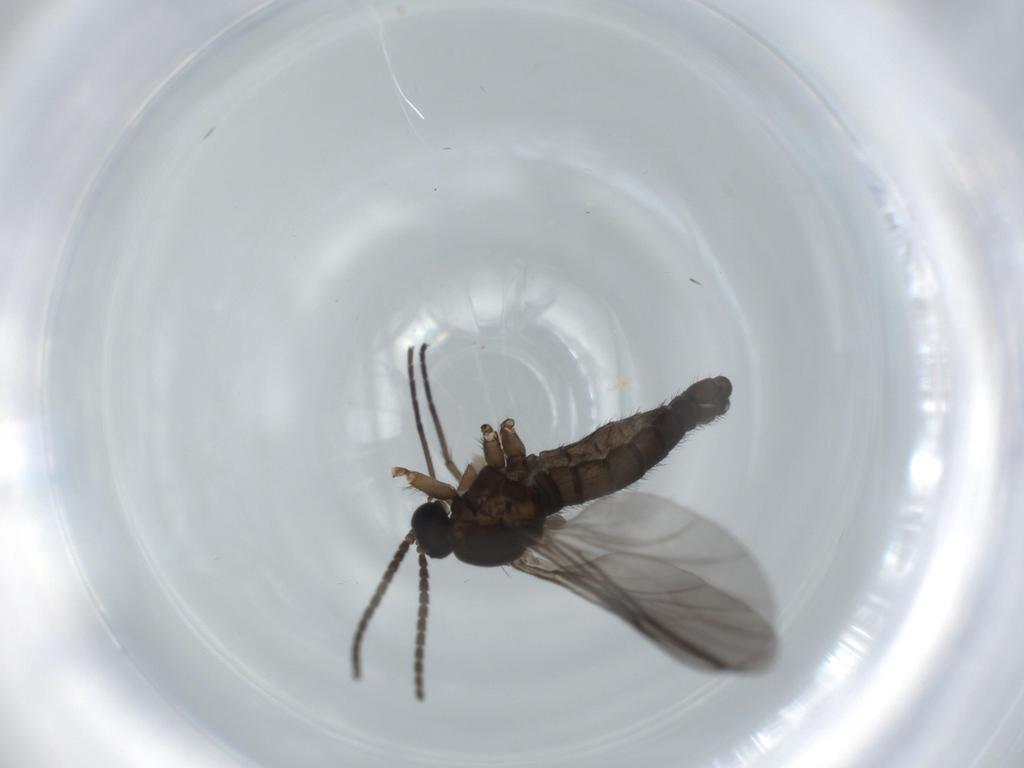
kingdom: Animalia
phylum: Arthropoda
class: Insecta
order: Diptera
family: Sciaridae
